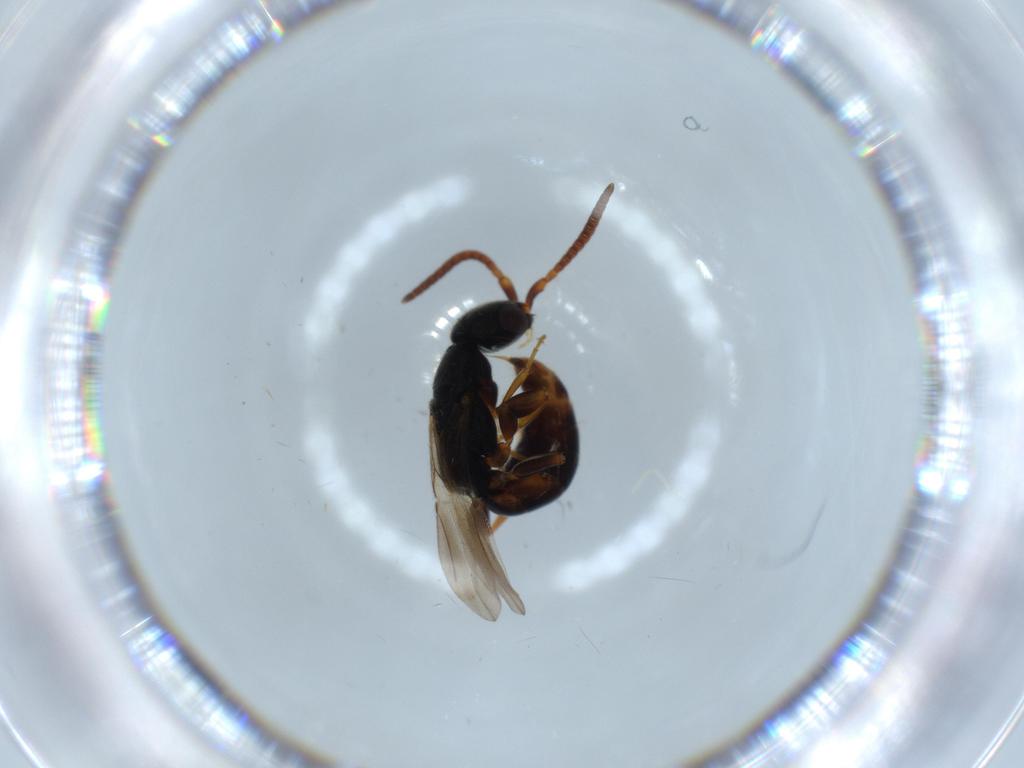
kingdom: Animalia
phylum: Arthropoda
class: Insecta
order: Hymenoptera
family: Bethylidae
